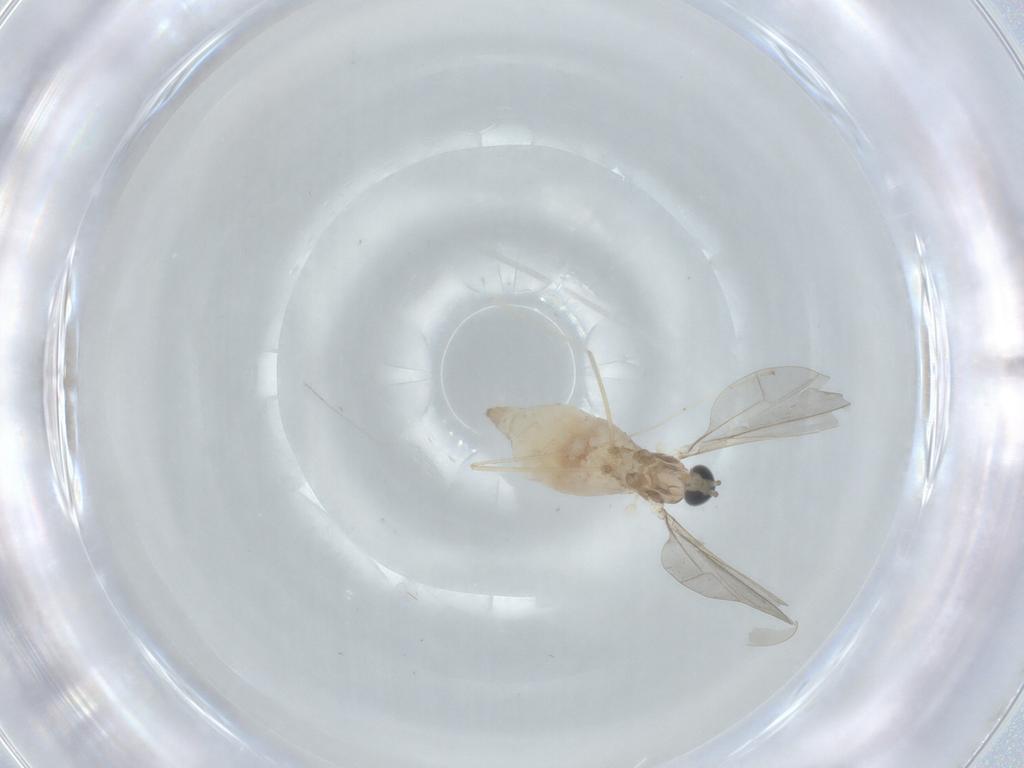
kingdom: Animalia
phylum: Arthropoda
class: Insecta
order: Diptera
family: Cecidomyiidae
